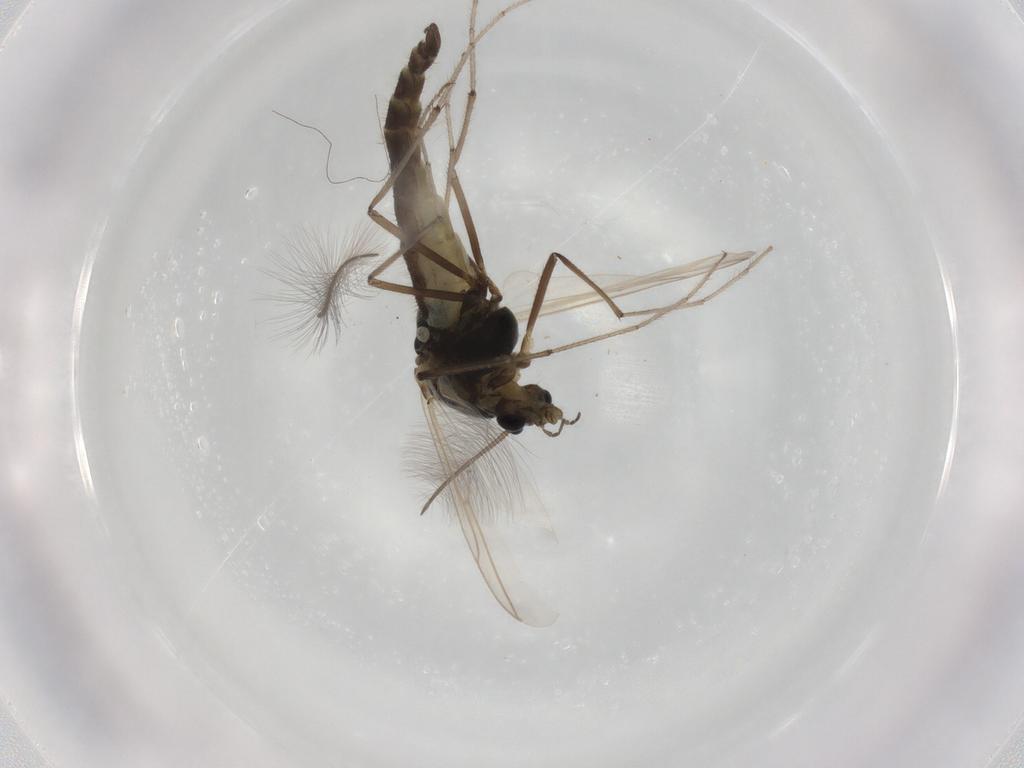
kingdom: Animalia
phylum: Arthropoda
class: Insecta
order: Diptera
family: Chironomidae
